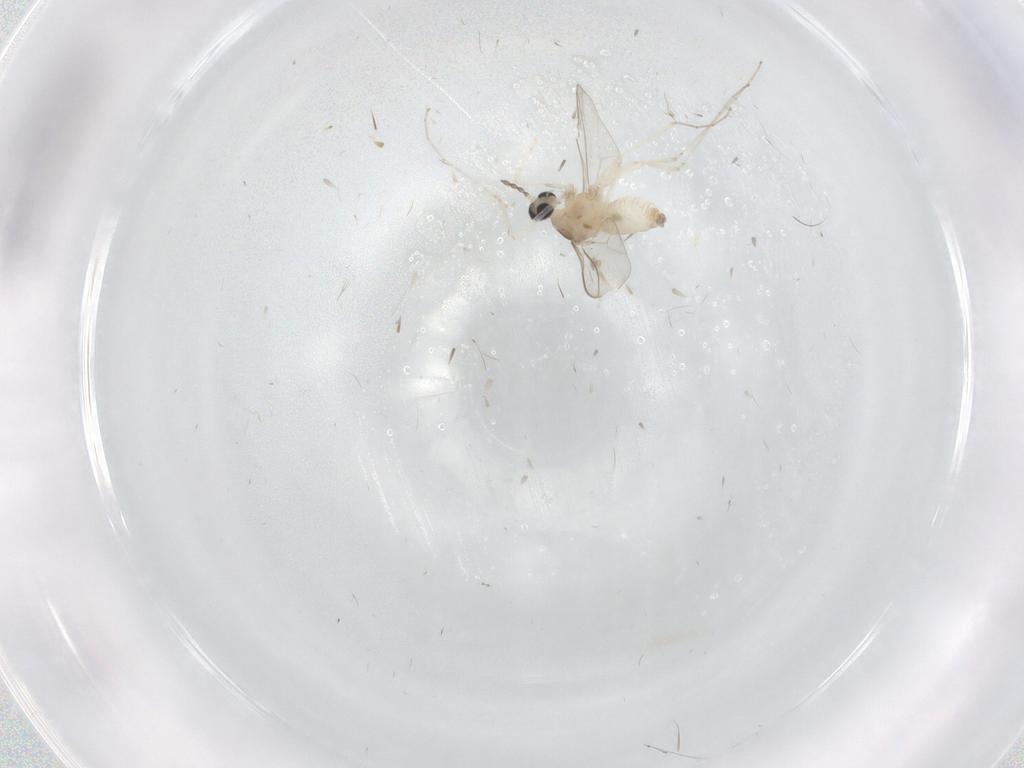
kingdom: Animalia
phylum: Arthropoda
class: Insecta
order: Diptera
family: Cecidomyiidae
